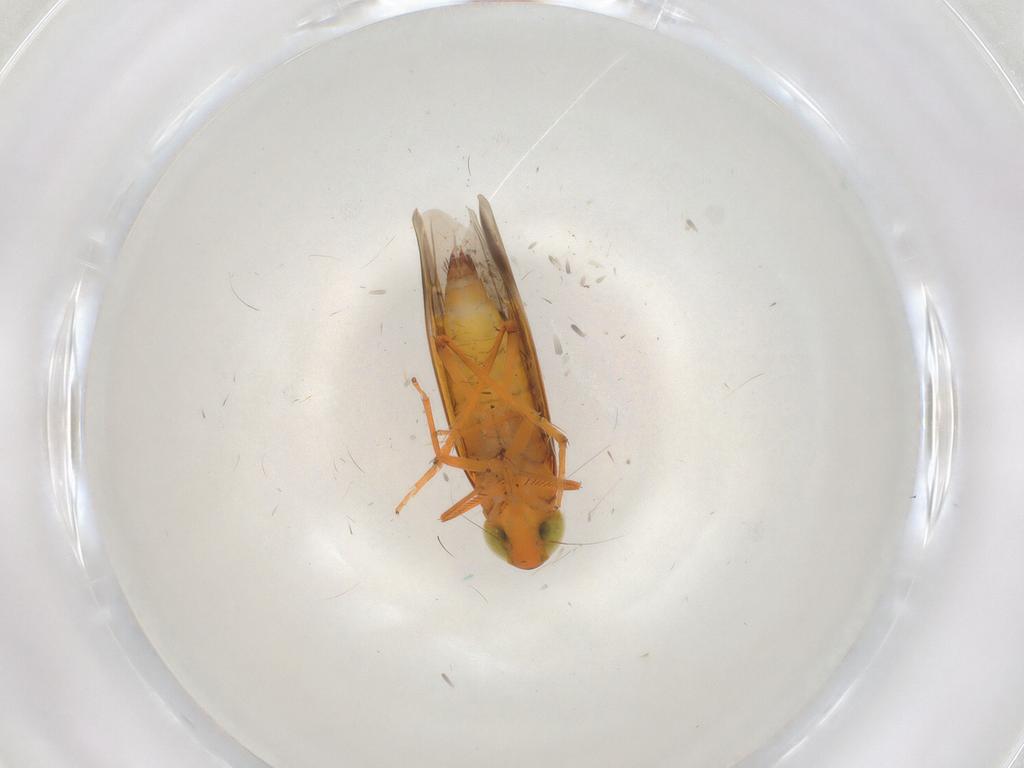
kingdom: Animalia
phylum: Arthropoda
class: Insecta
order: Hemiptera
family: Cicadellidae
